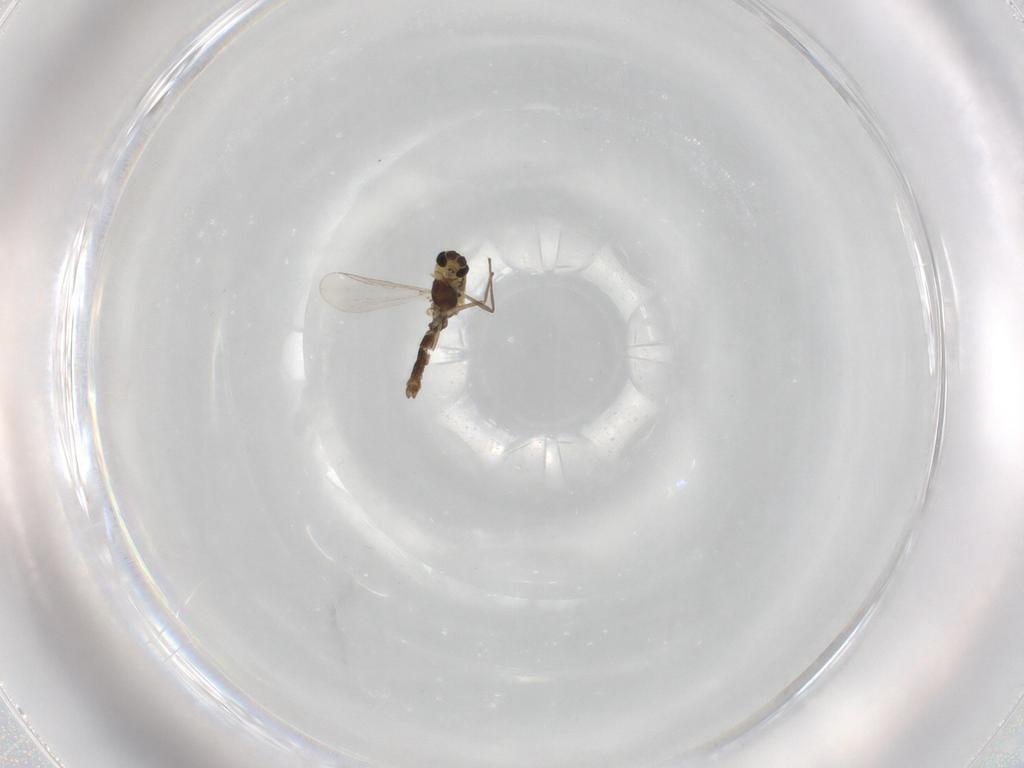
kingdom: Animalia
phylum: Arthropoda
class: Insecta
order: Diptera
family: Chironomidae
